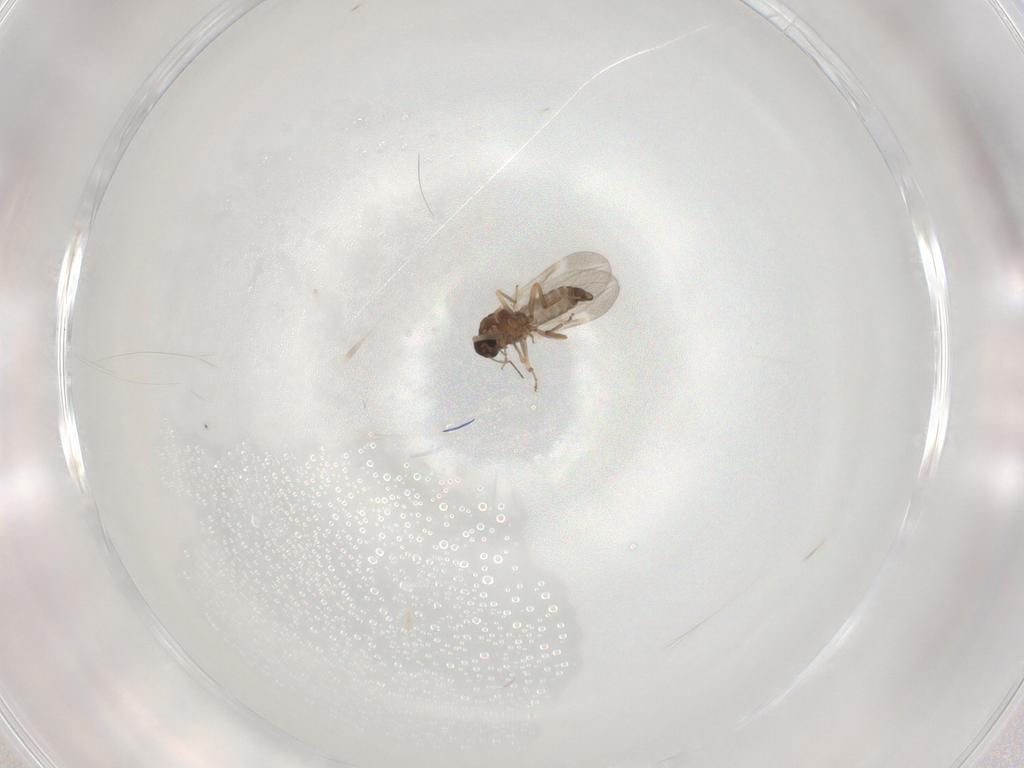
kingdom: Animalia
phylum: Arthropoda
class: Insecta
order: Diptera
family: Ceratopogonidae
